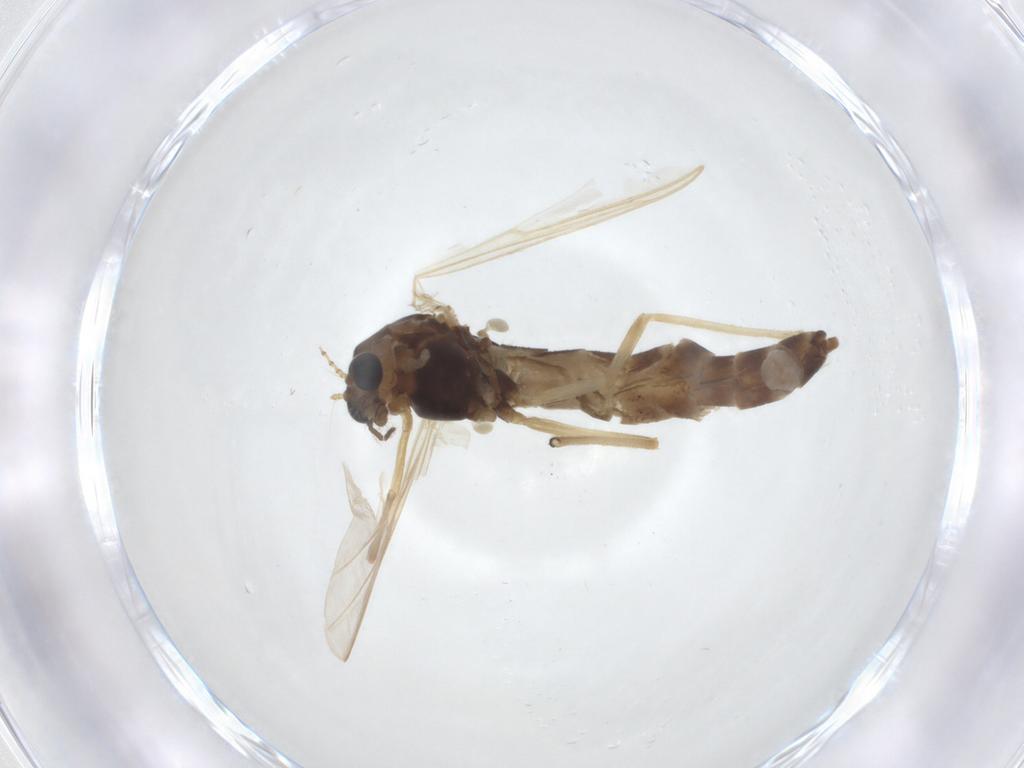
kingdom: Animalia
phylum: Arthropoda
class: Insecta
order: Diptera
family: Chironomidae
